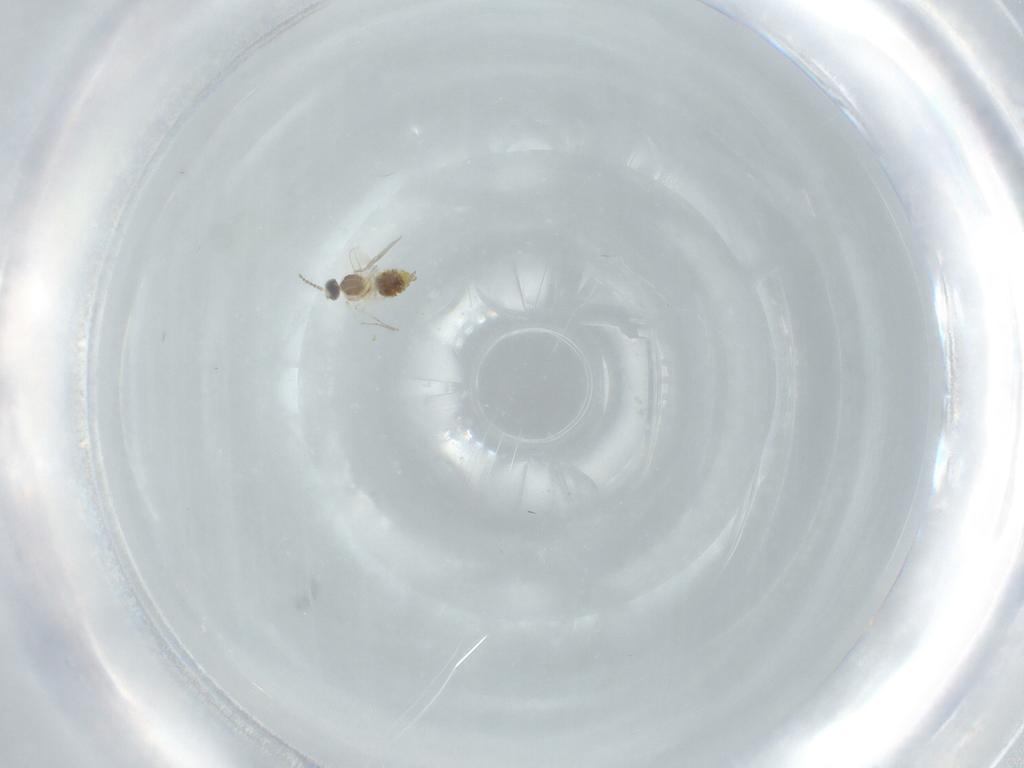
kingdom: Animalia
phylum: Arthropoda
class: Insecta
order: Diptera
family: Cecidomyiidae
